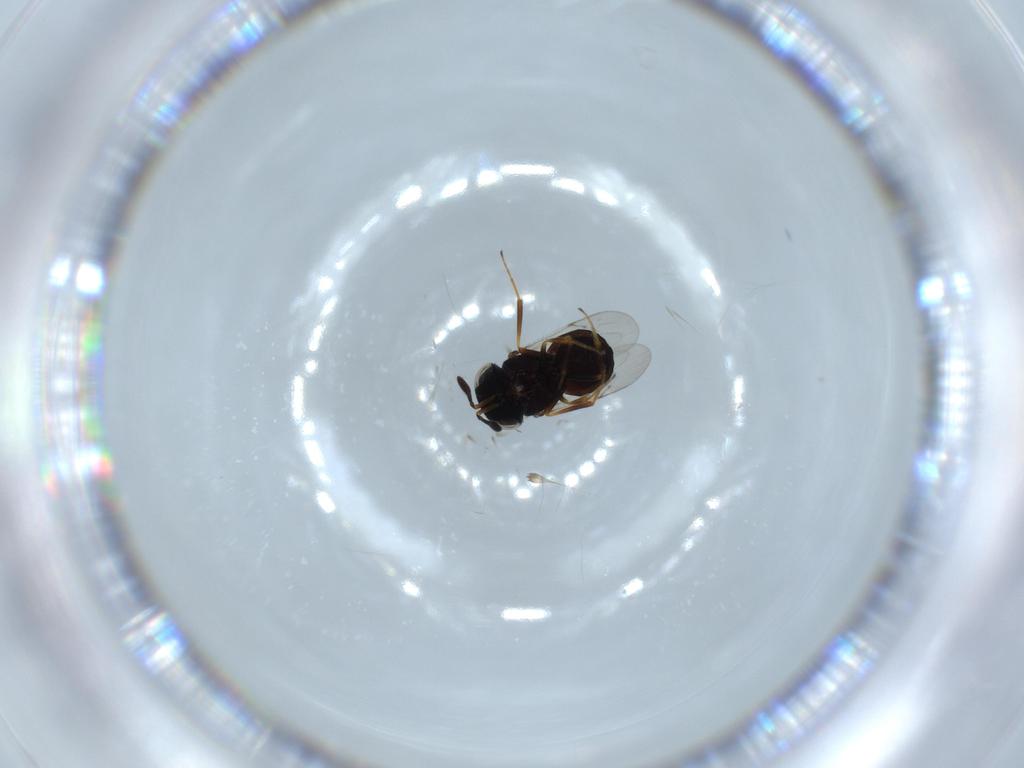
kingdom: Animalia
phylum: Arthropoda
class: Insecta
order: Hymenoptera
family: Scelionidae
